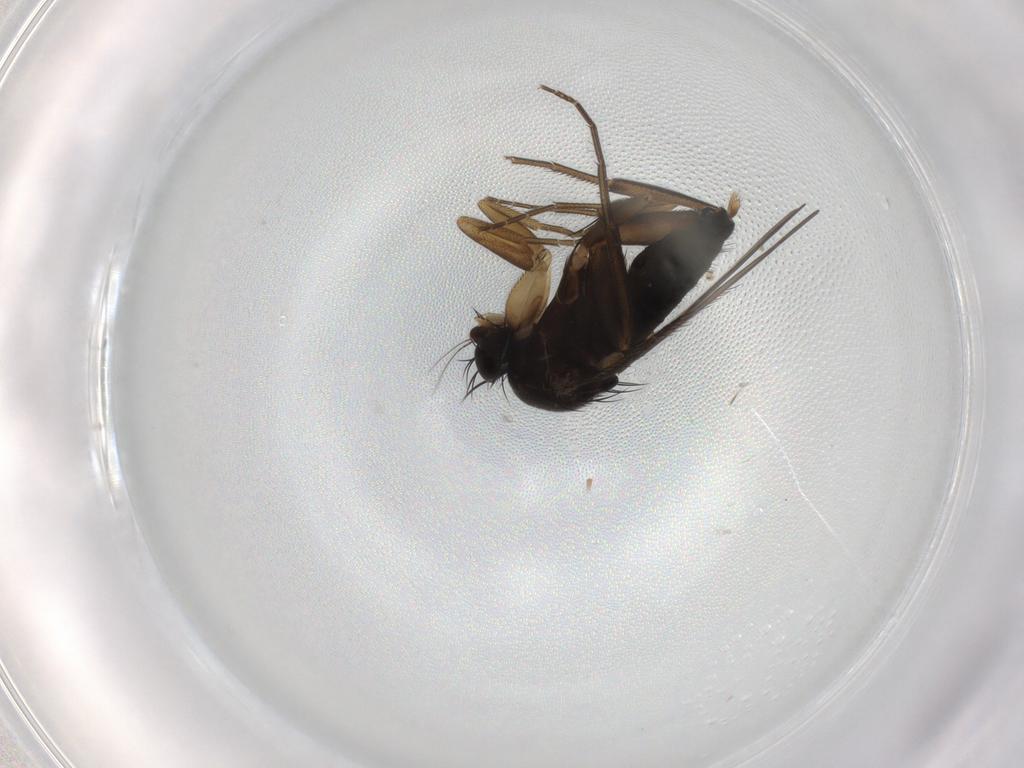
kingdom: Animalia
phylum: Arthropoda
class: Insecta
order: Diptera
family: Phoridae
